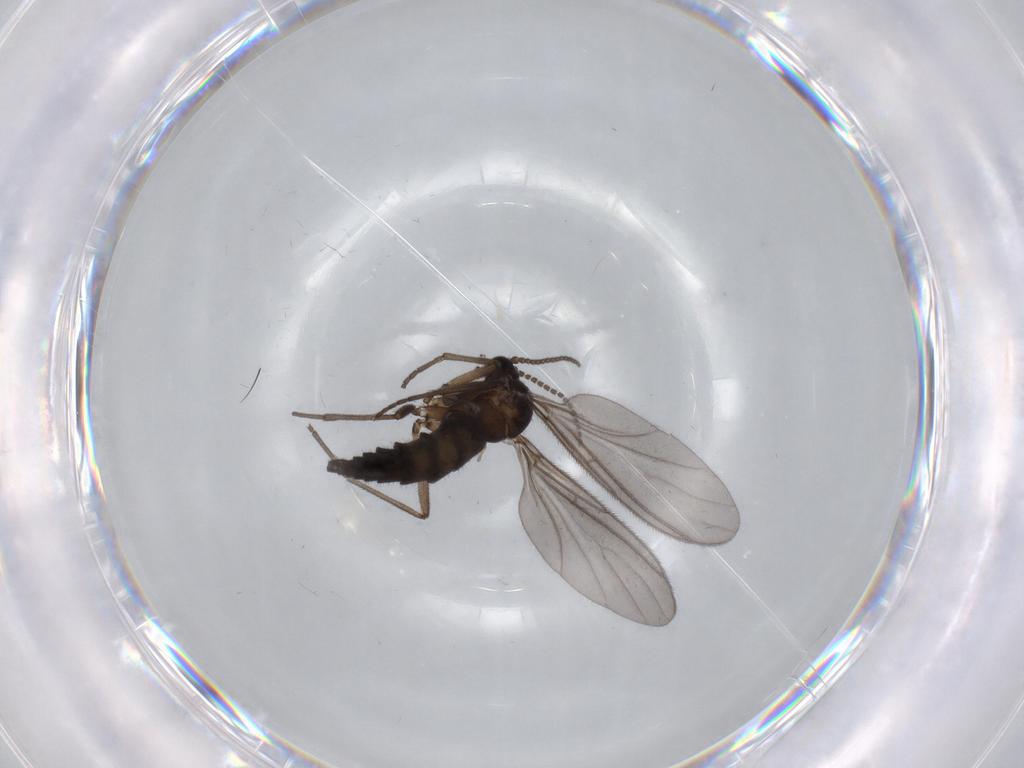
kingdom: Animalia
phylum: Arthropoda
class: Insecta
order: Diptera
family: Sciaridae
